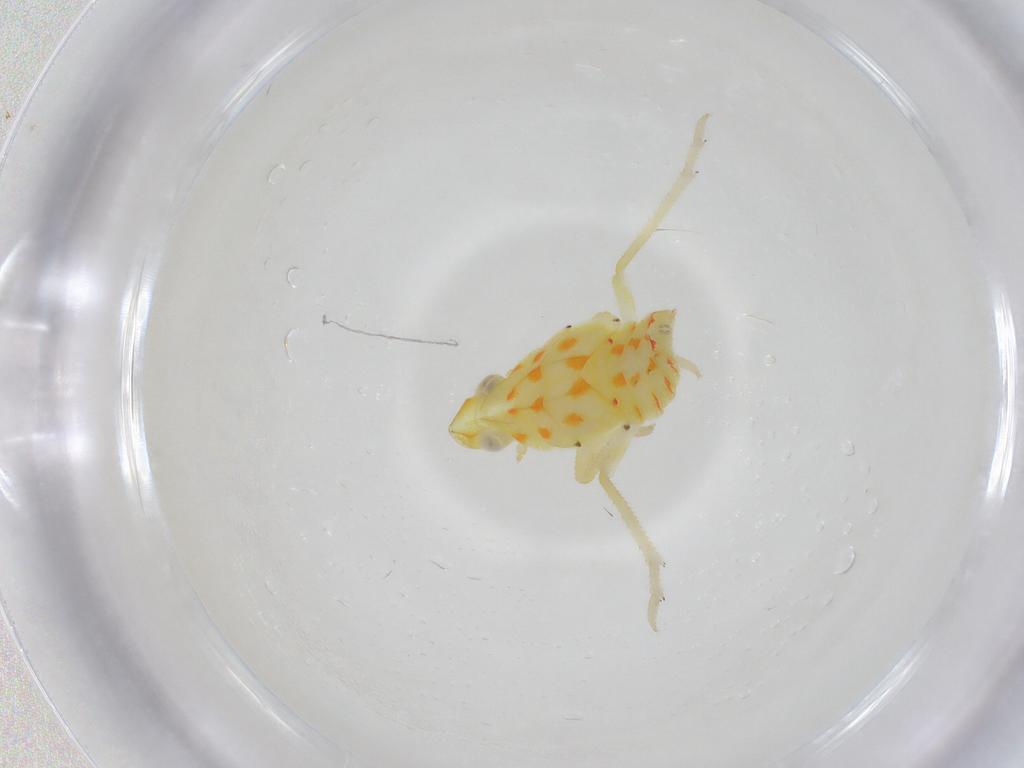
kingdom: Animalia
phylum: Arthropoda
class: Insecta
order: Hemiptera
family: Tropiduchidae
